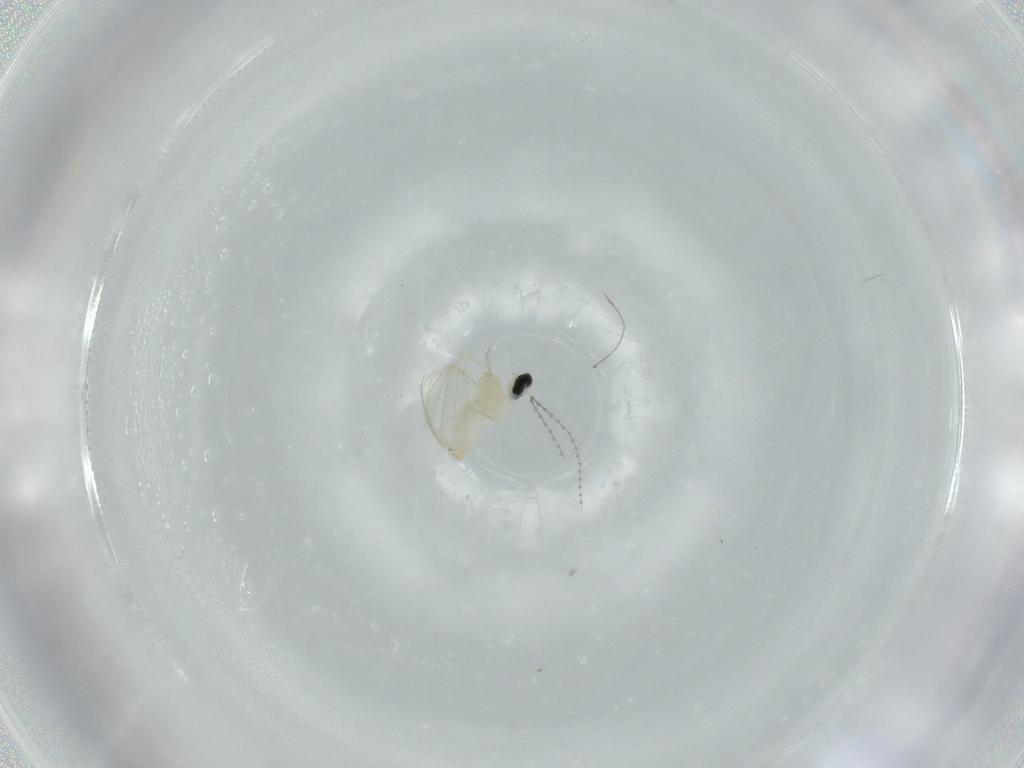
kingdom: Animalia
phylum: Arthropoda
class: Insecta
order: Diptera
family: Cecidomyiidae
